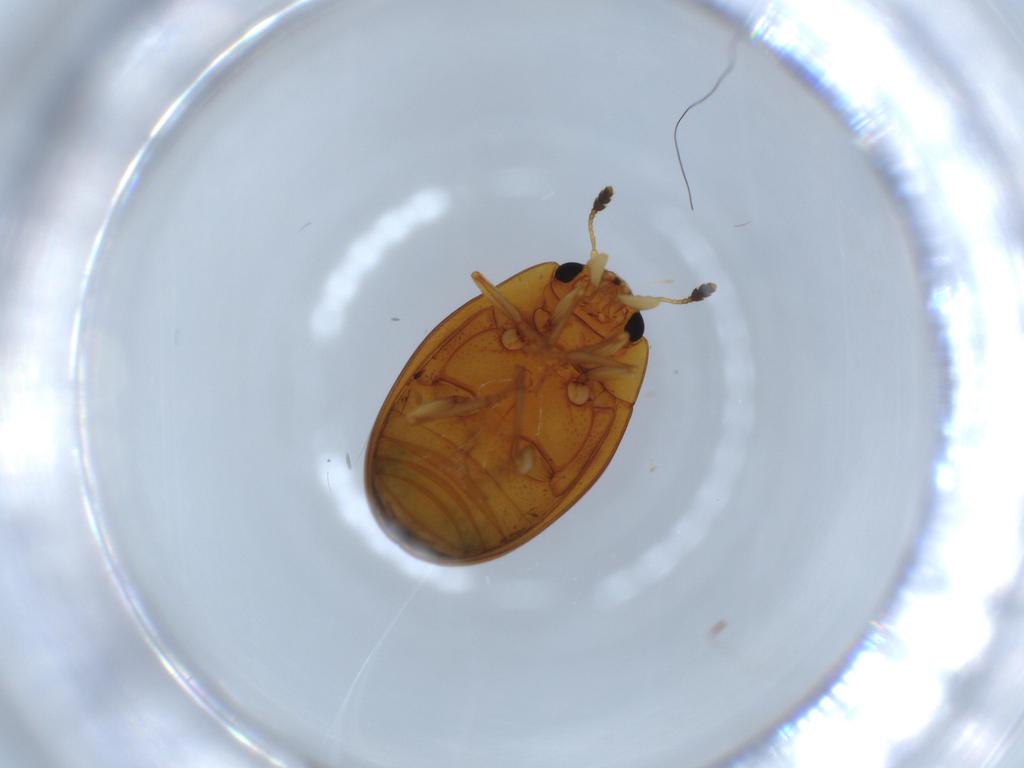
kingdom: Animalia
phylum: Arthropoda
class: Insecta
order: Coleoptera
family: Erotylidae
